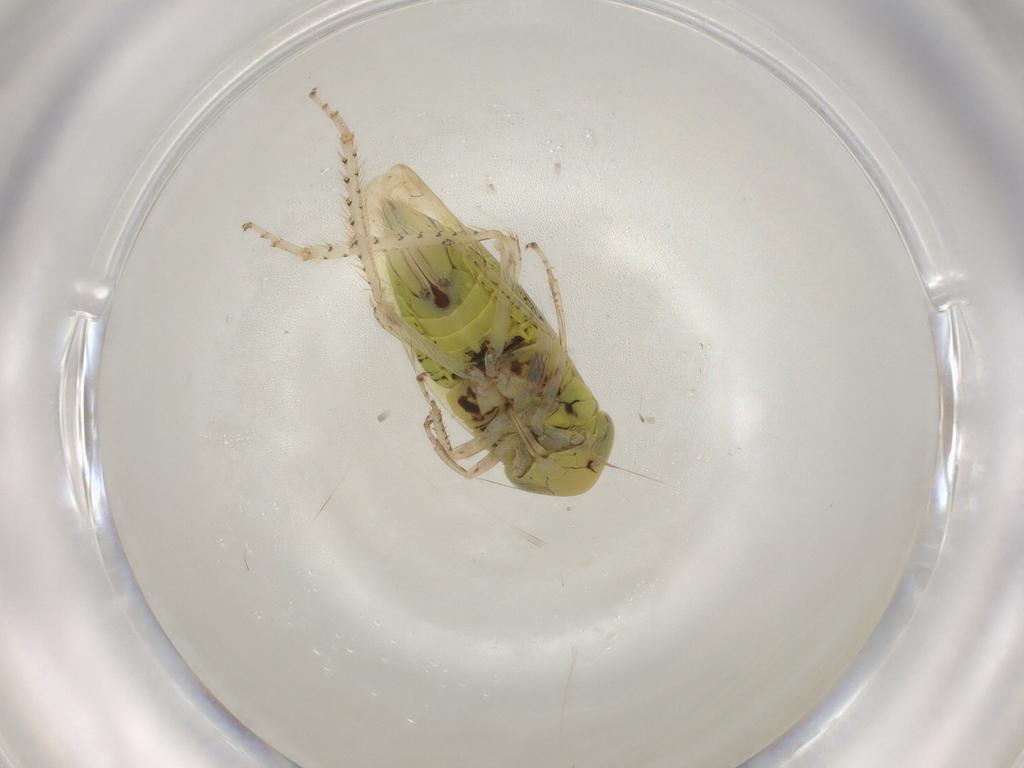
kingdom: Animalia
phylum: Arthropoda
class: Insecta
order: Hemiptera
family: Cicadellidae
